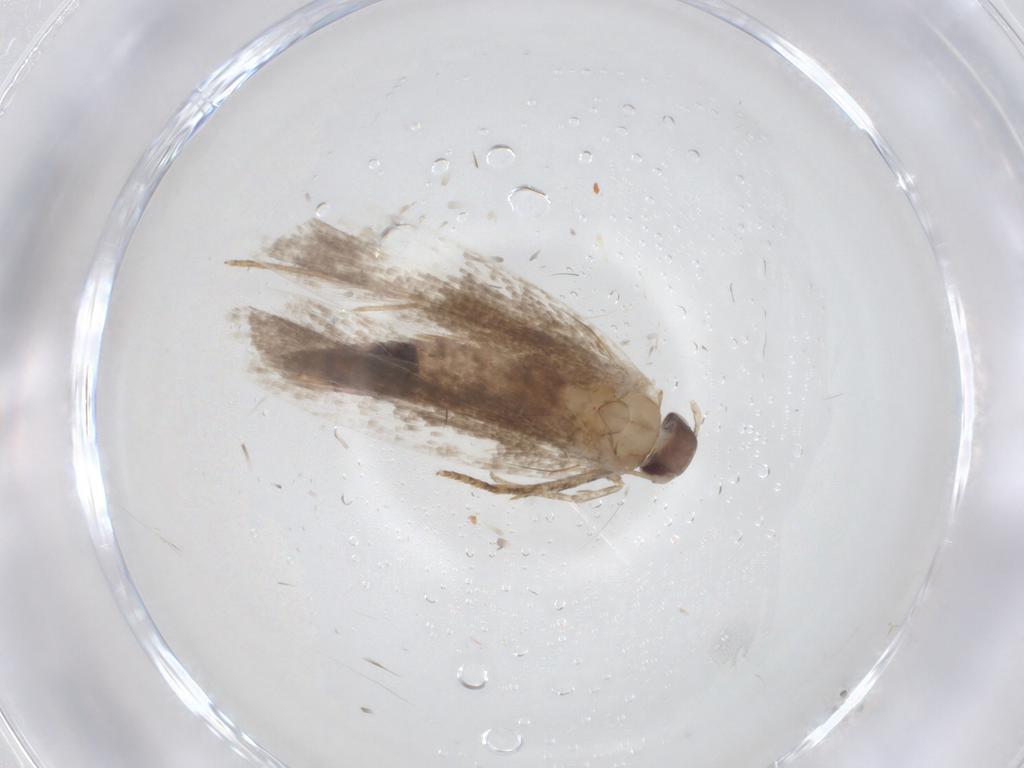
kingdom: Animalia
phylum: Arthropoda
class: Insecta
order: Lepidoptera
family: Gelechiidae
